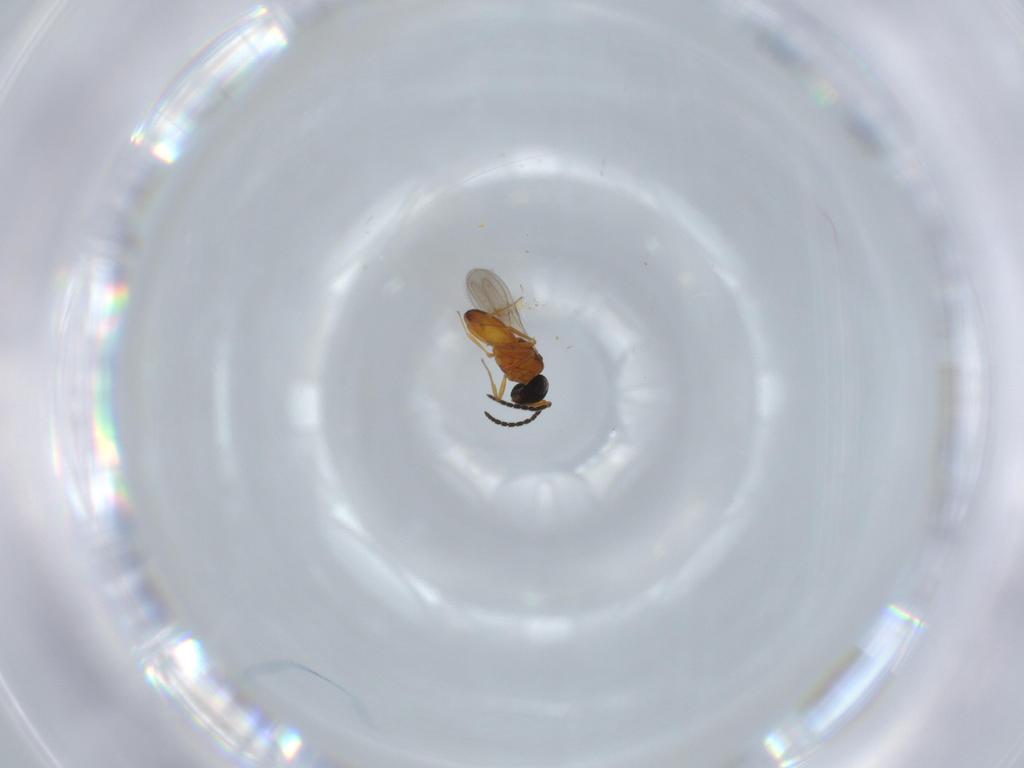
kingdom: Animalia
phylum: Arthropoda
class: Insecta
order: Hymenoptera
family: Scelionidae
